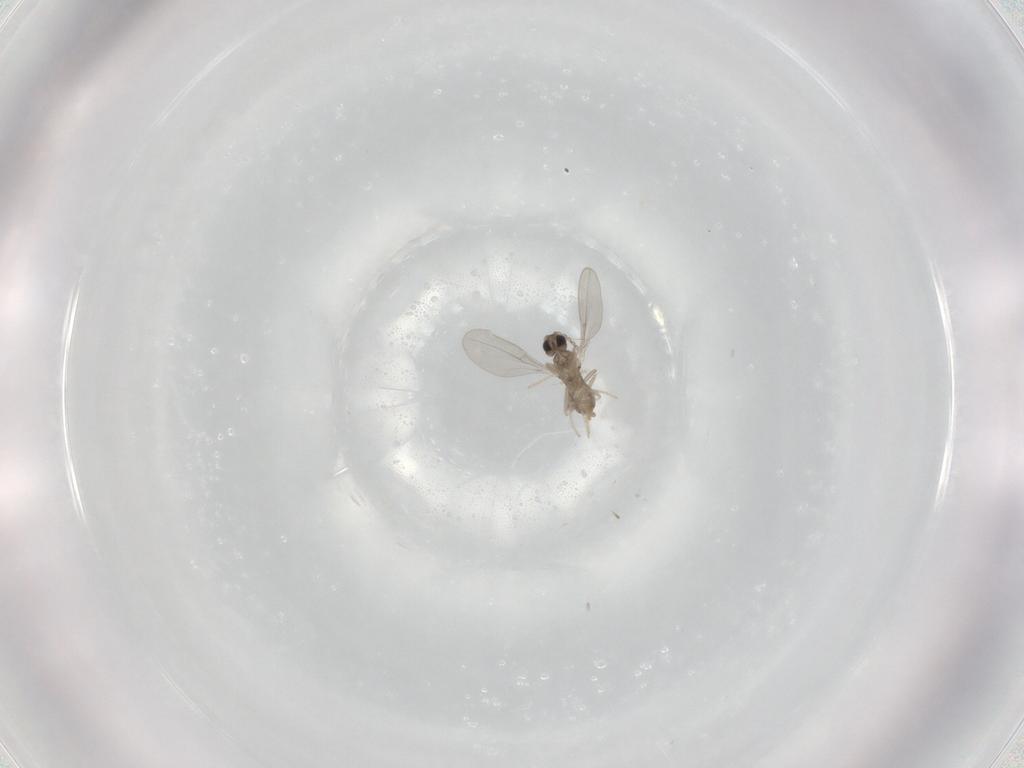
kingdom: Animalia
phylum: Arthropoda
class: Insecta
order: Diptera
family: Cecidomyiidae
